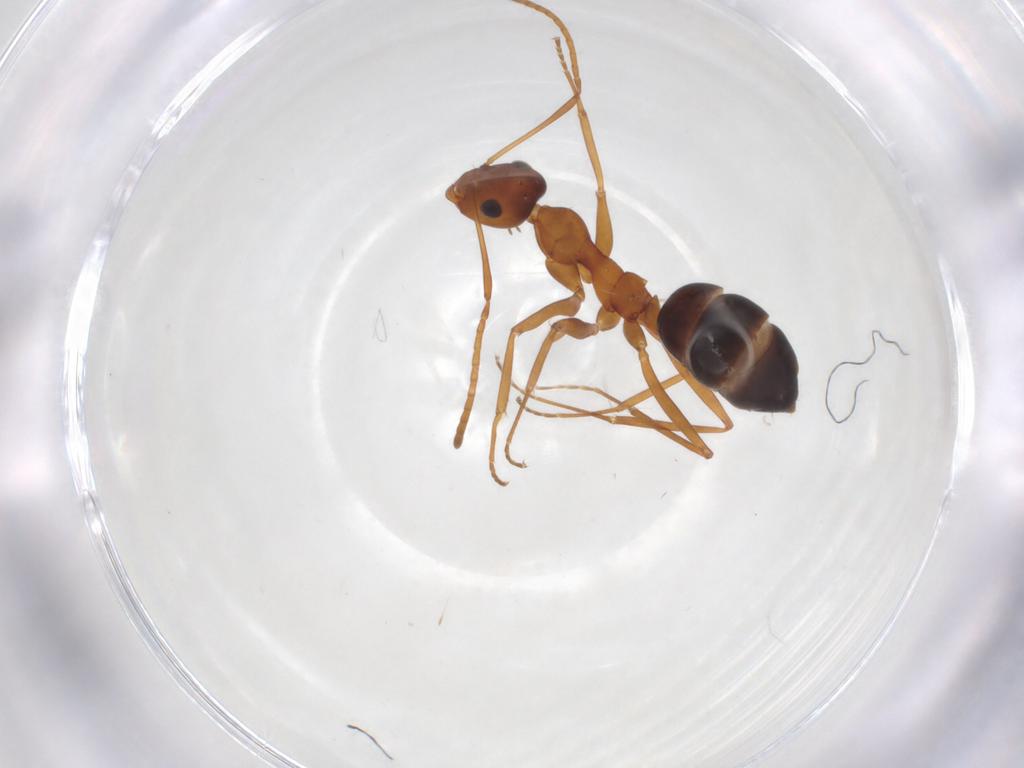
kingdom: Animalia
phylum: Arthropoda
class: Insecta
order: Hymenoptera
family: Formicidae
